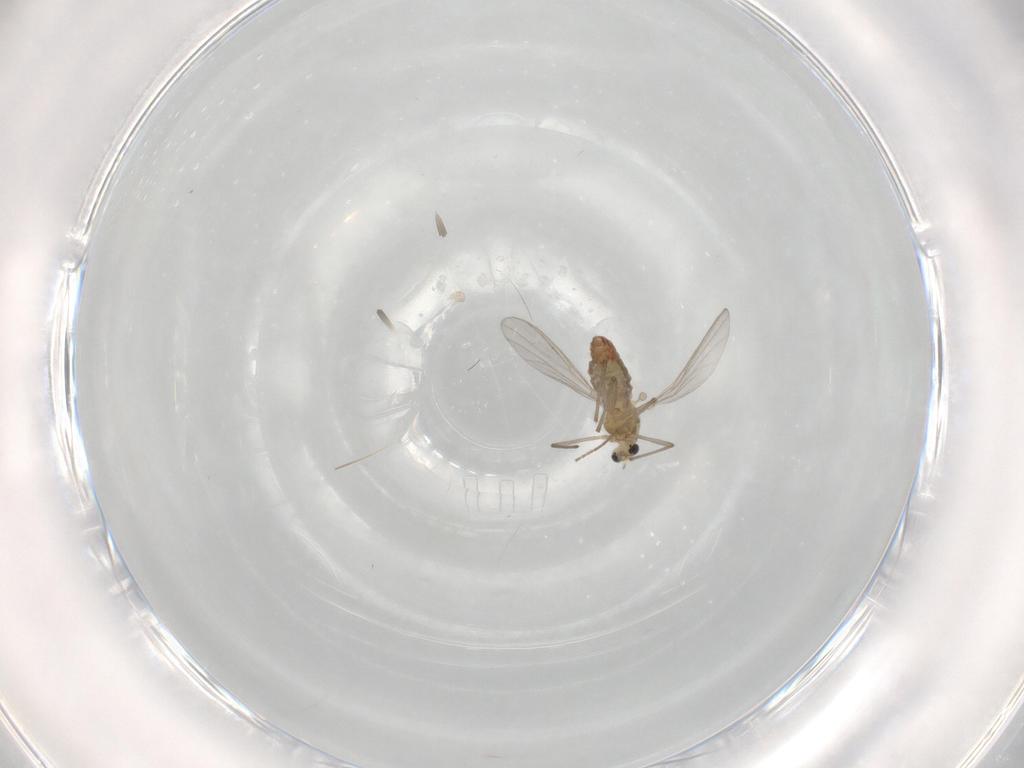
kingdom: Animalia
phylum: Arthropoda
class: Insecta
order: Diptera
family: Chironomidae
